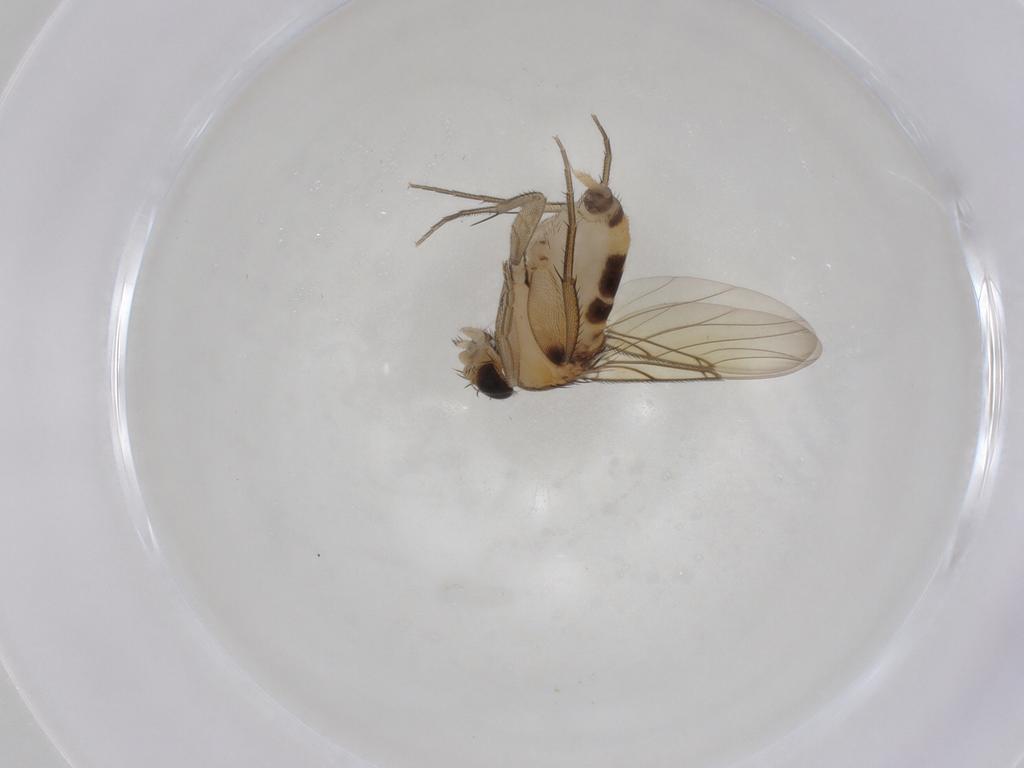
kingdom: Animalia
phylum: Arthropoda
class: Insecta
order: Diptera
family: Phoridae
